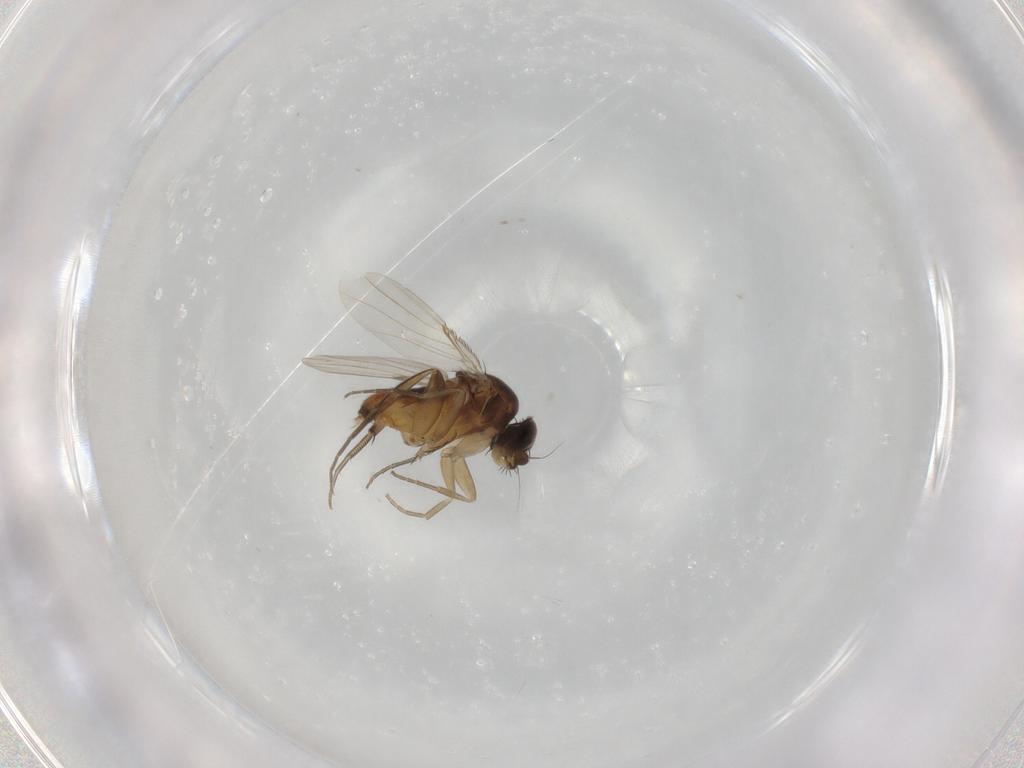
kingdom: Animalia
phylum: Arthropoda
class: Insecta
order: Diptera
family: Phoridae
